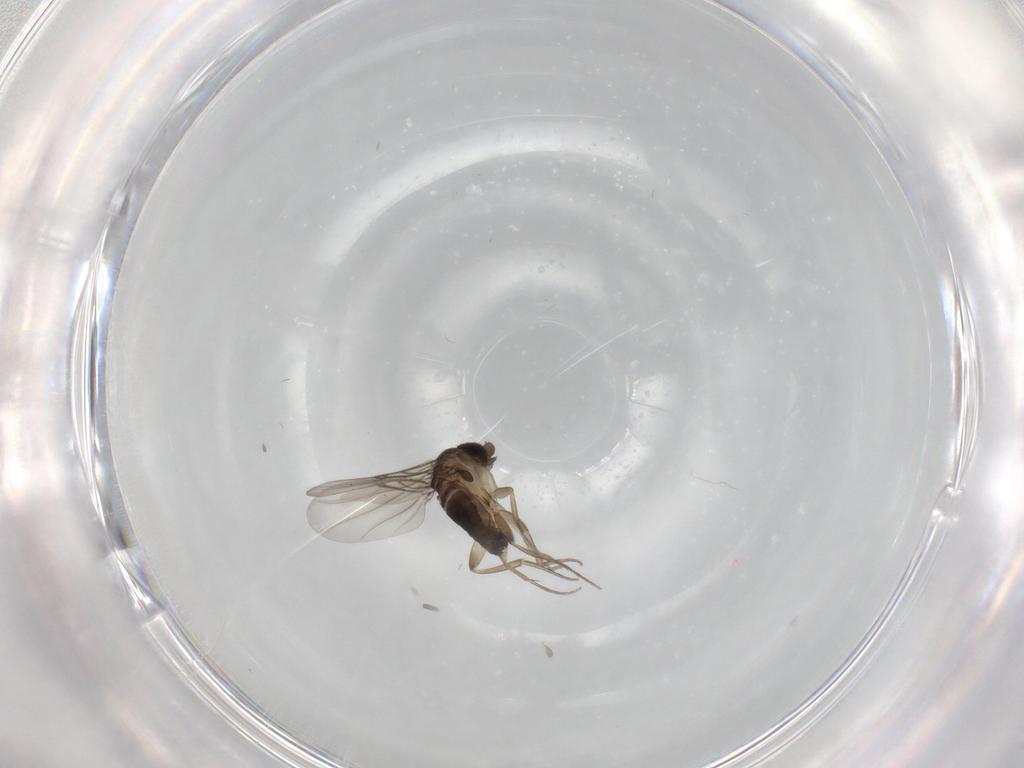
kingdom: Animalia
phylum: Arthropoda
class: Insecta
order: Diptera
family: Phoridae
